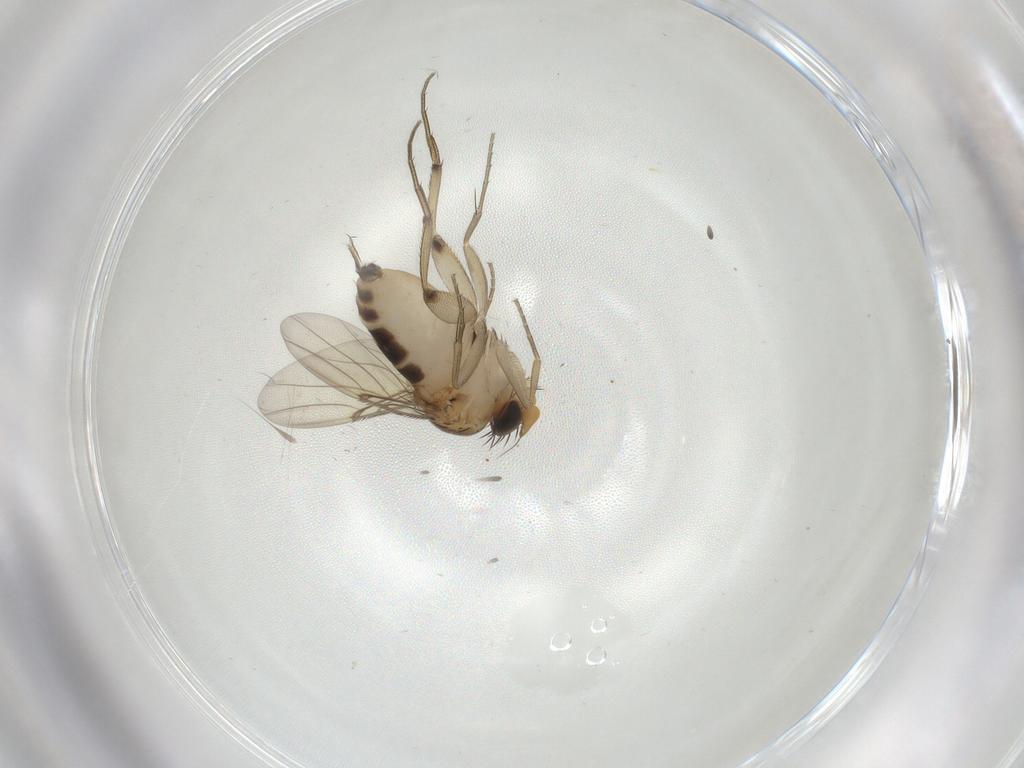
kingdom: Animalia
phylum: Arthropoda
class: Insecta
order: Diptera
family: Phoridae
